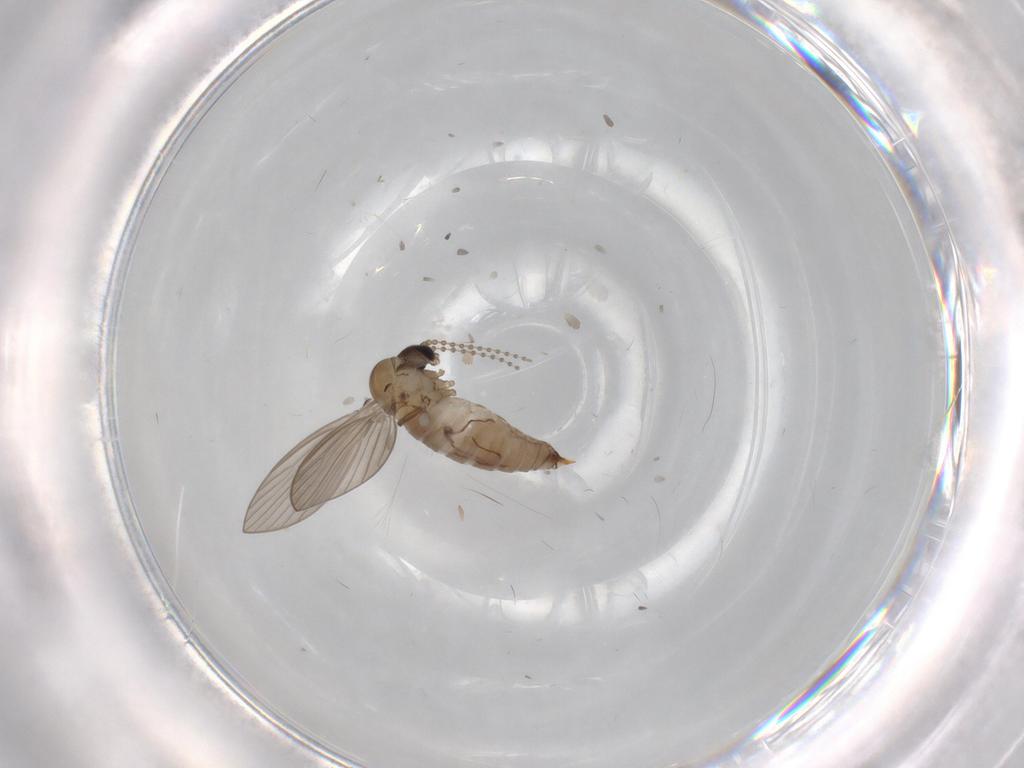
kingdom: Animalia
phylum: Arthropoda
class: Insecta
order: Diptera
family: Psychodidae
